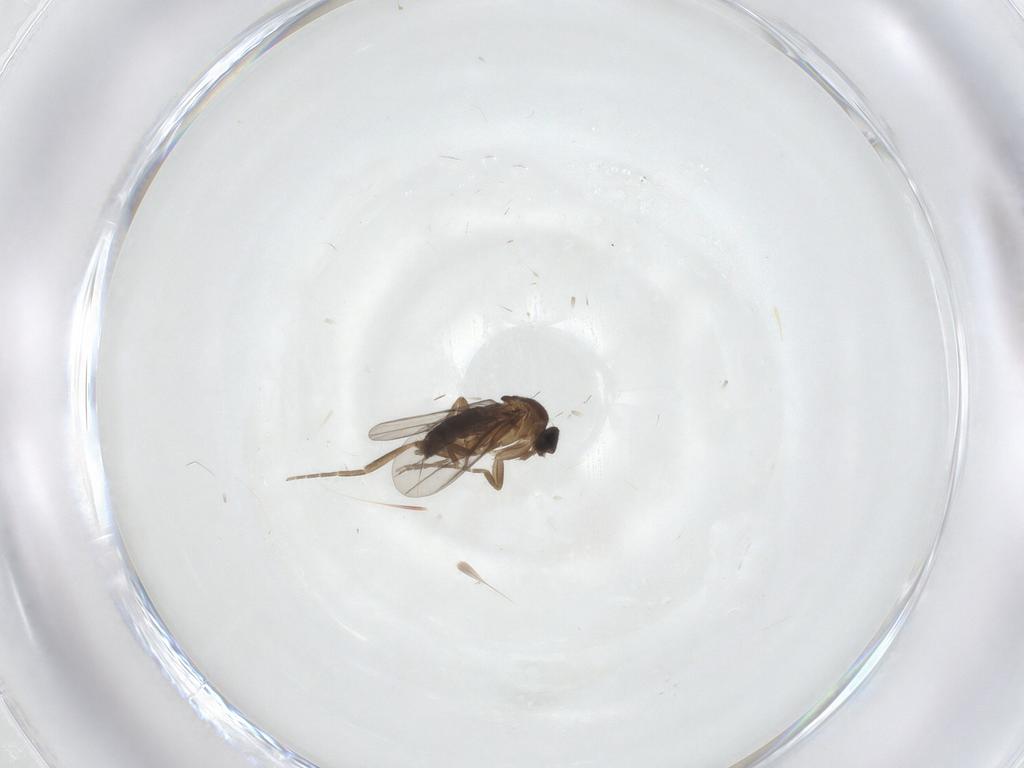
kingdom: Animalia
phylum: Arthropoda
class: Insecta
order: Diptera
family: Phoridae
